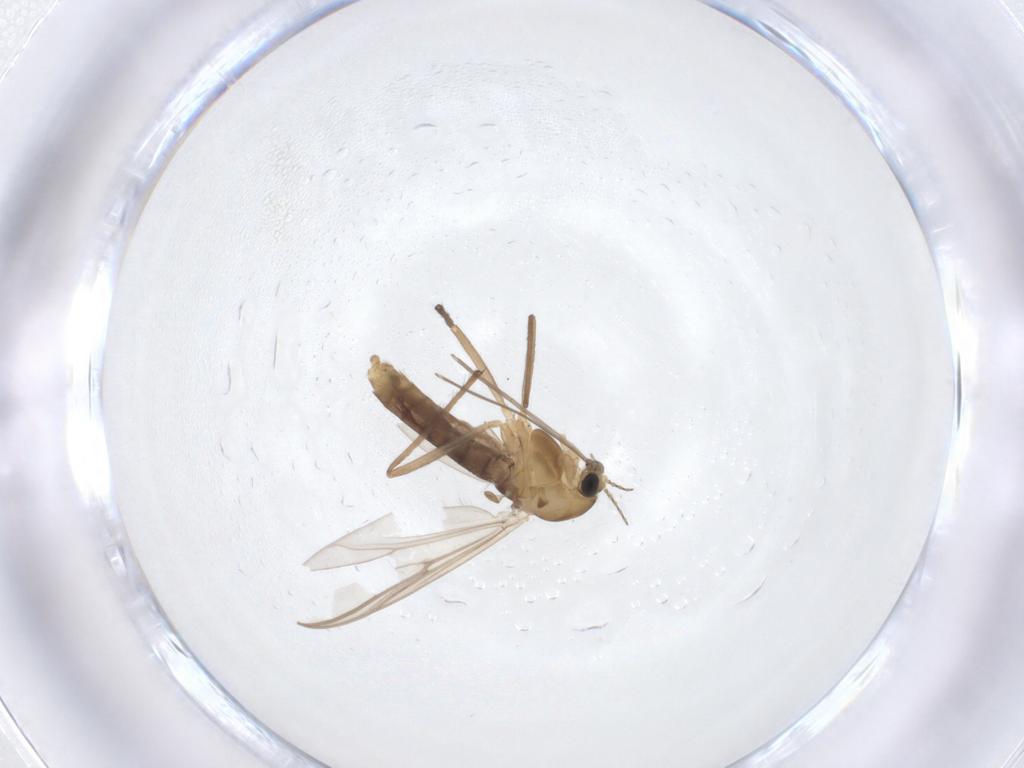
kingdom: Animalia
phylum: Arthropoda
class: Insecta
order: Diptera
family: Chironomidae
